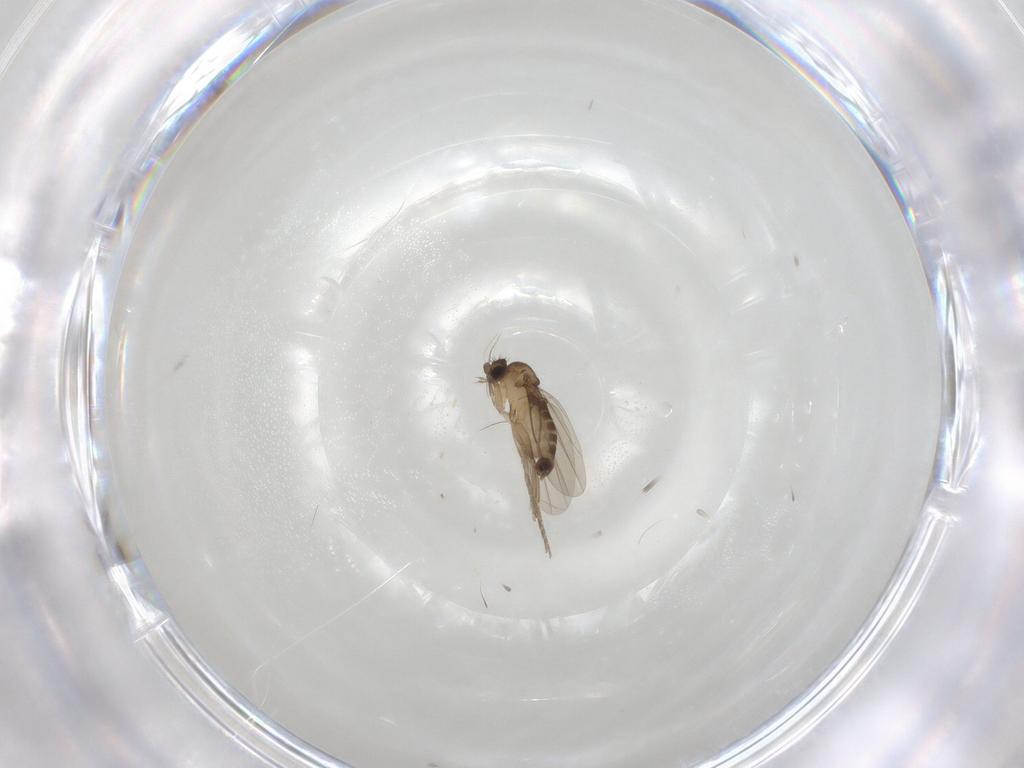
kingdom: Animalia
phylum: Arthropoda
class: Insecta
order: Diptera
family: Phoridae
